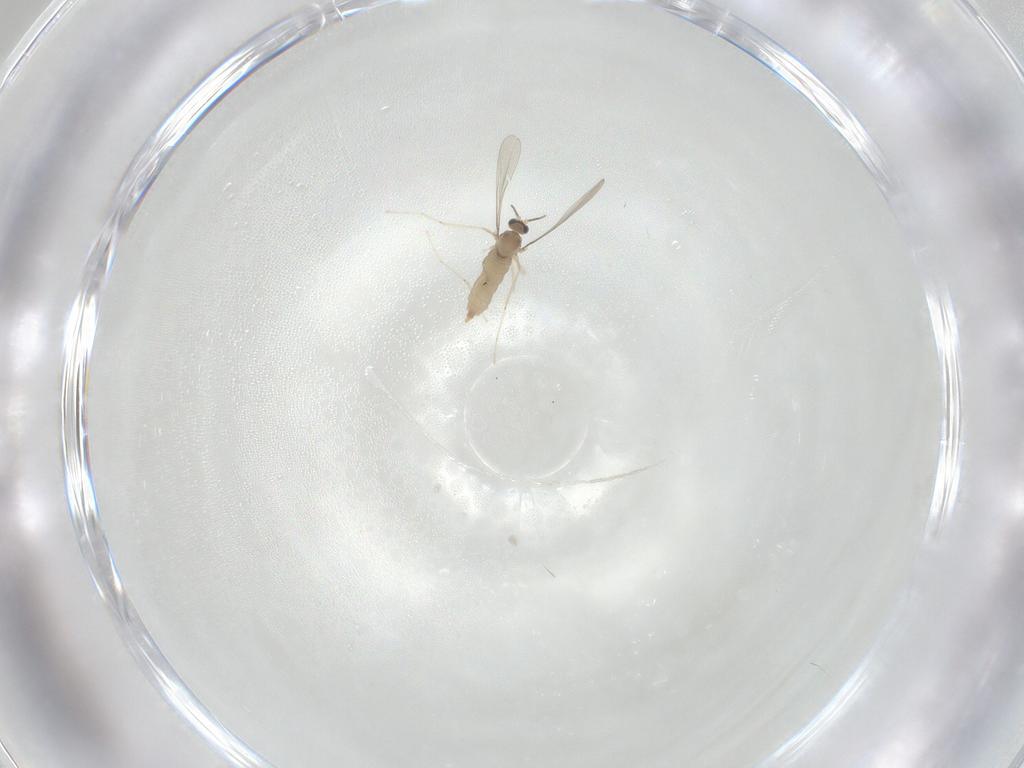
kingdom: Animalia
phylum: Arthropoda
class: Insecta
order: Diptera
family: Cecidomyiidae
